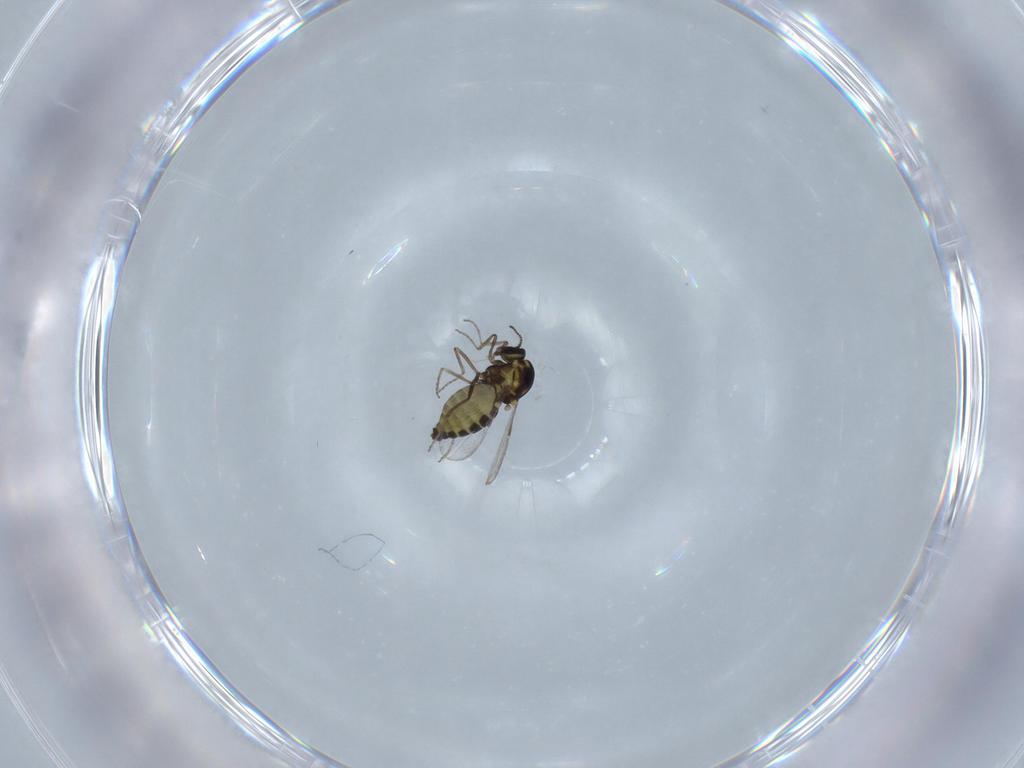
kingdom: Animalia
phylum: Arthropoda
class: Insecta
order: Diptera
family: Ceratopogonidae
